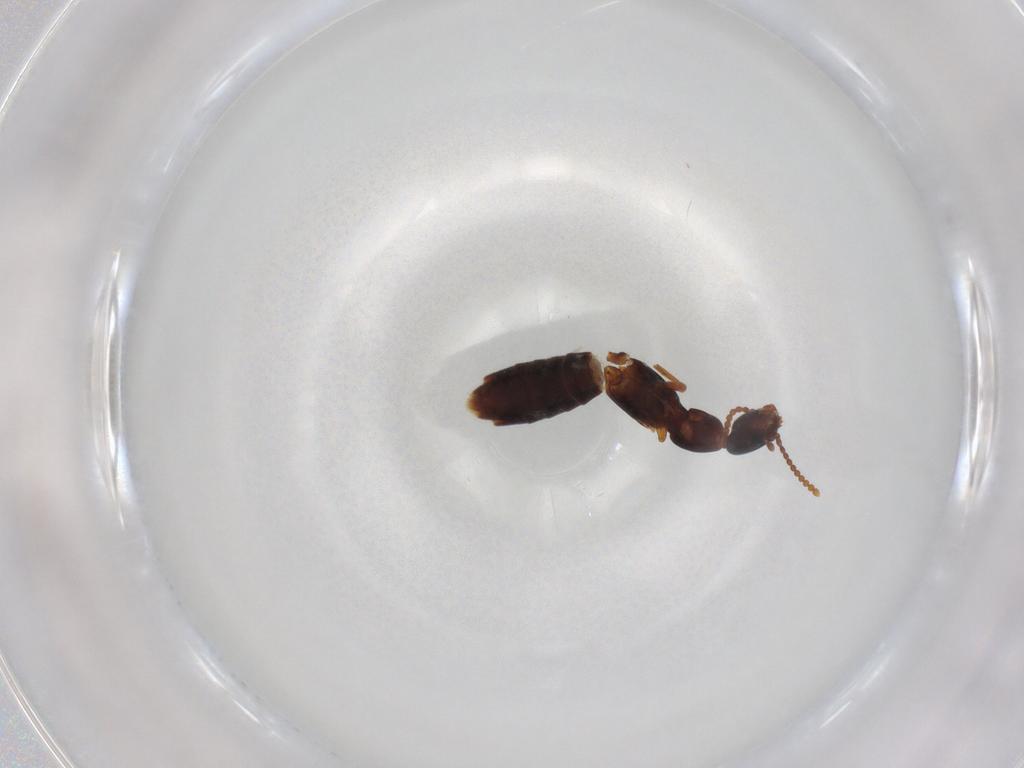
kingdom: Animalia
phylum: Arthropoda
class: Insecta
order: Coleoptera
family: Staphylinidae
